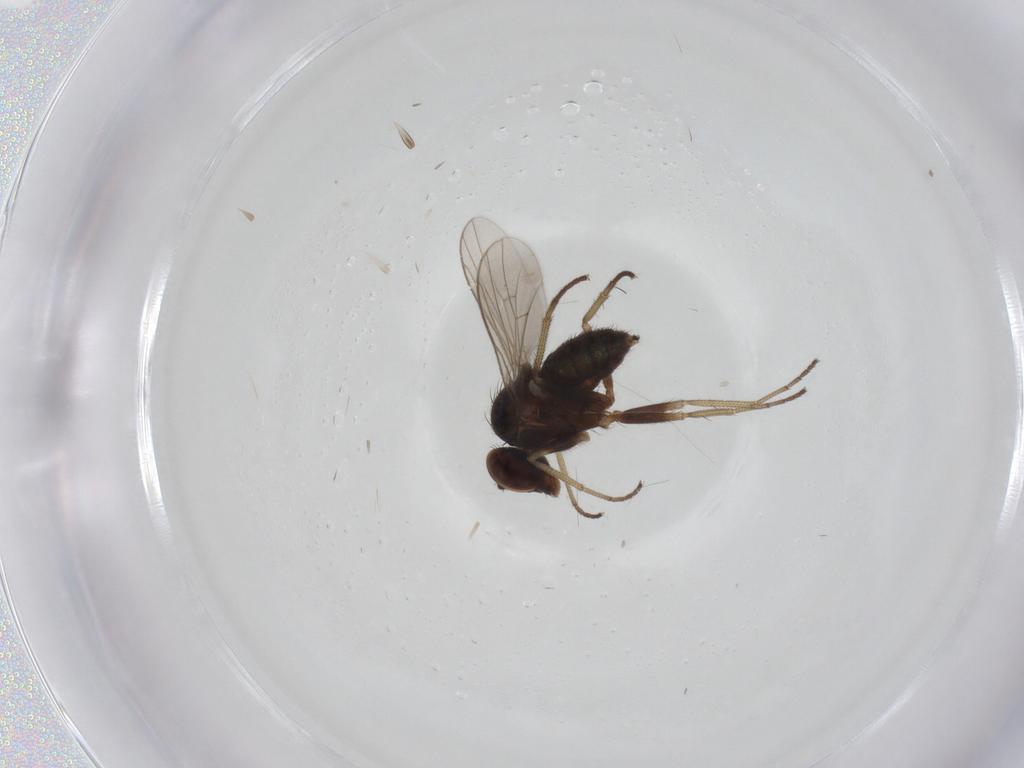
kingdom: Animalia
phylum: Arthropoda
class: Insecta
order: Diptera
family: Dolichopodidae
